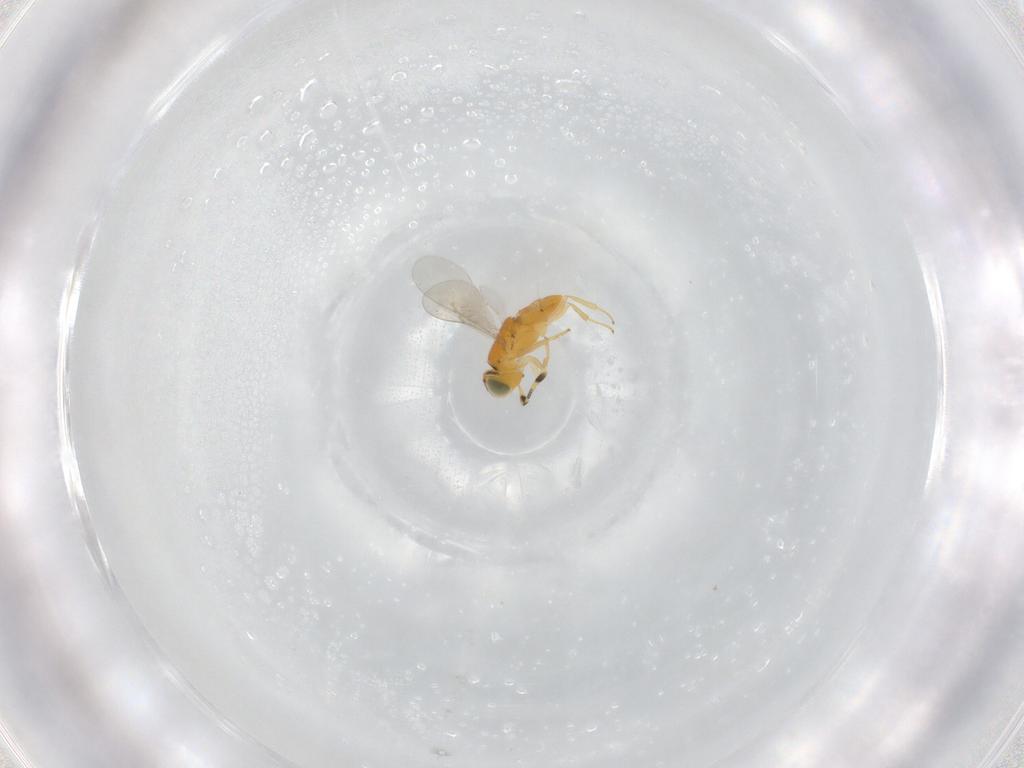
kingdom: Animalia
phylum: Arthropoda
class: Insecta
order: Hymenoptera
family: Encyrtidae
